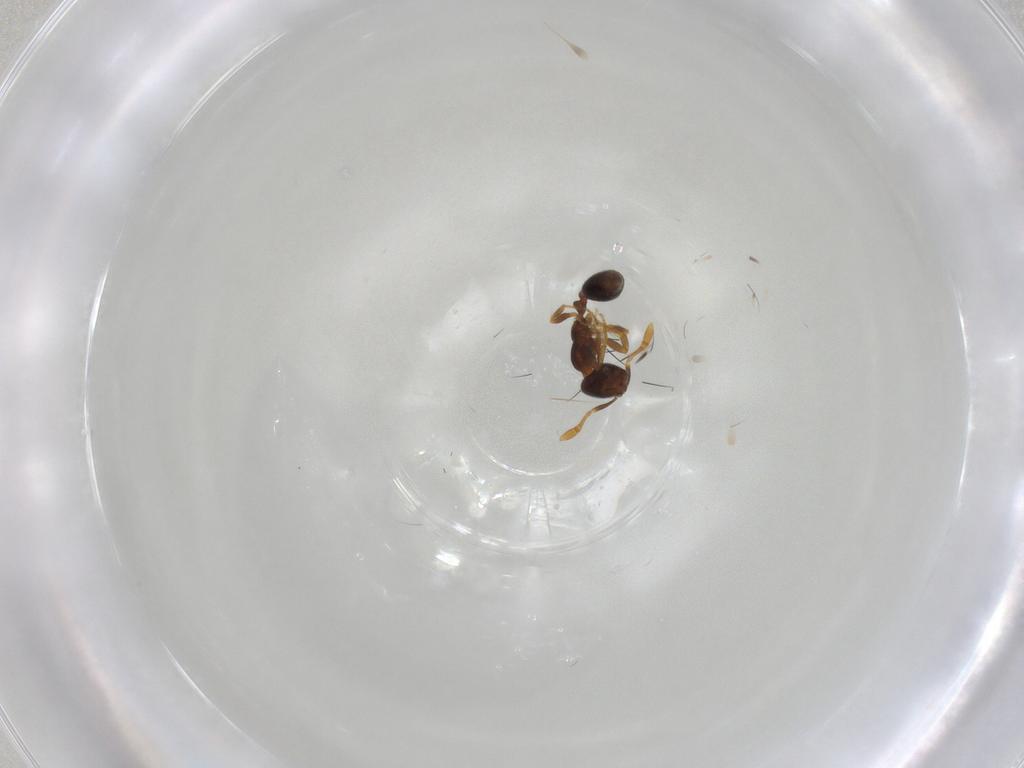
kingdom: Animalia
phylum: Arthropoda
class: Insecta
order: Hymenoptera
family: Formicidae
